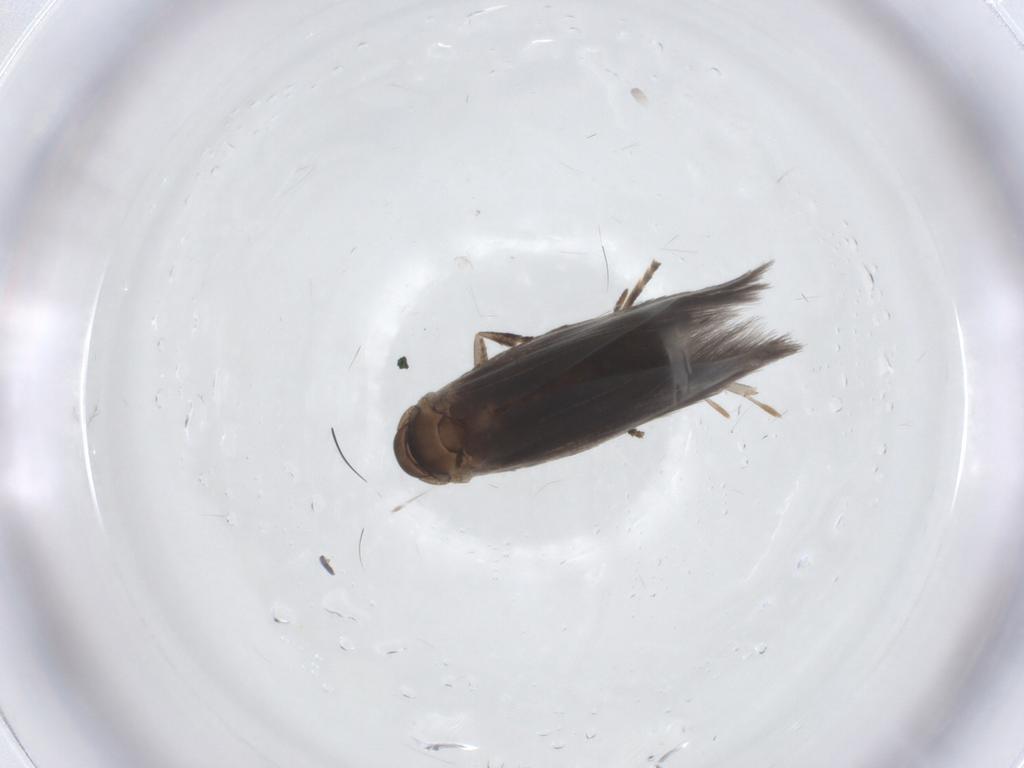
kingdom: Animalia
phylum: Arthropoda
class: Insecta
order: Lepidoptera
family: Elachistidae
